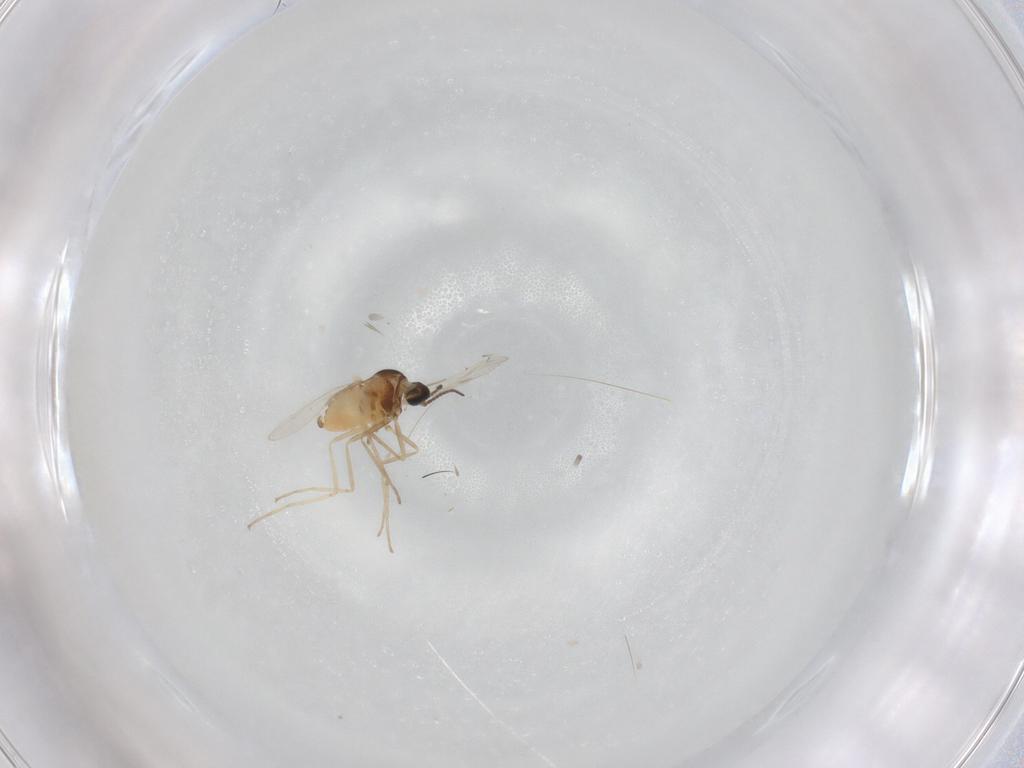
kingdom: Animalia
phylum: Arthropoda
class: Insecta
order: Diptera
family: Cecidomyiidae
